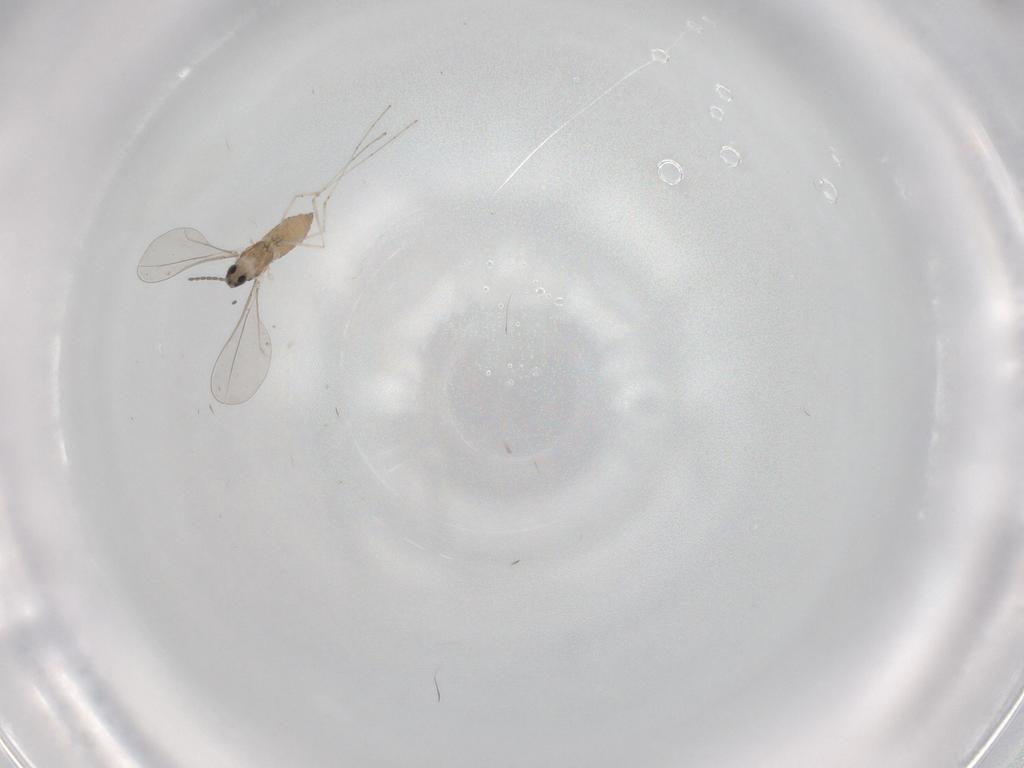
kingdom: Animalia
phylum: Arthropoda
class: Insecta
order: Diptera
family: Cecidomyiidae
